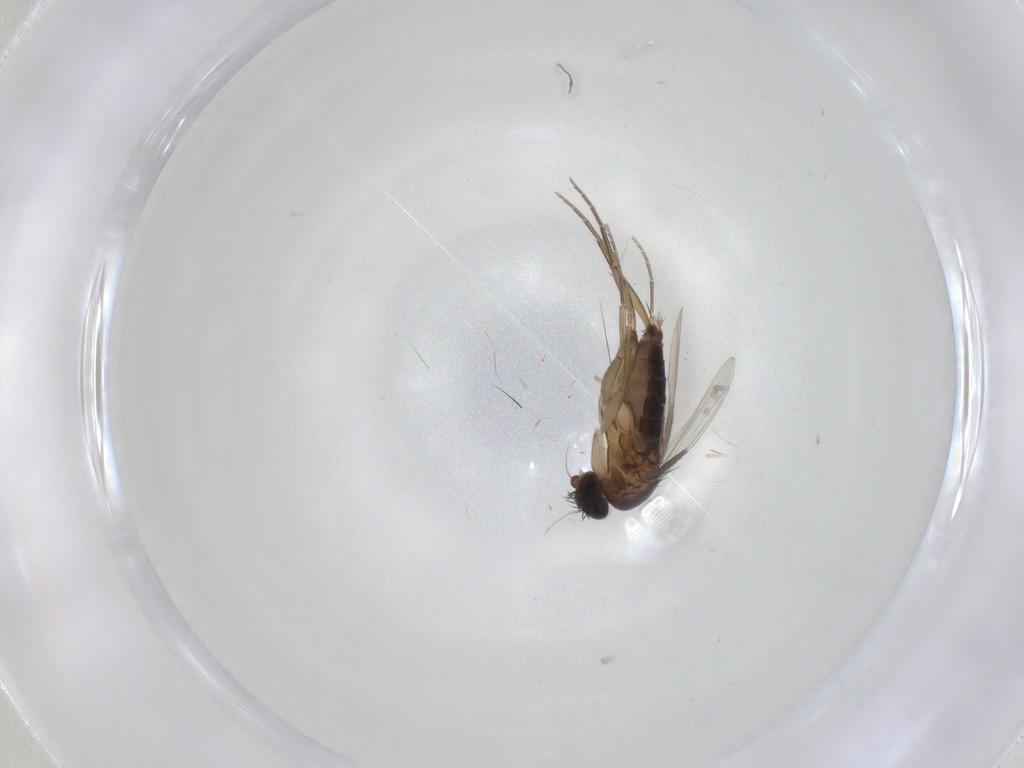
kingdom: Animalia
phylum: Arthropoda
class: Insecta
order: Diptera
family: Phoridae
